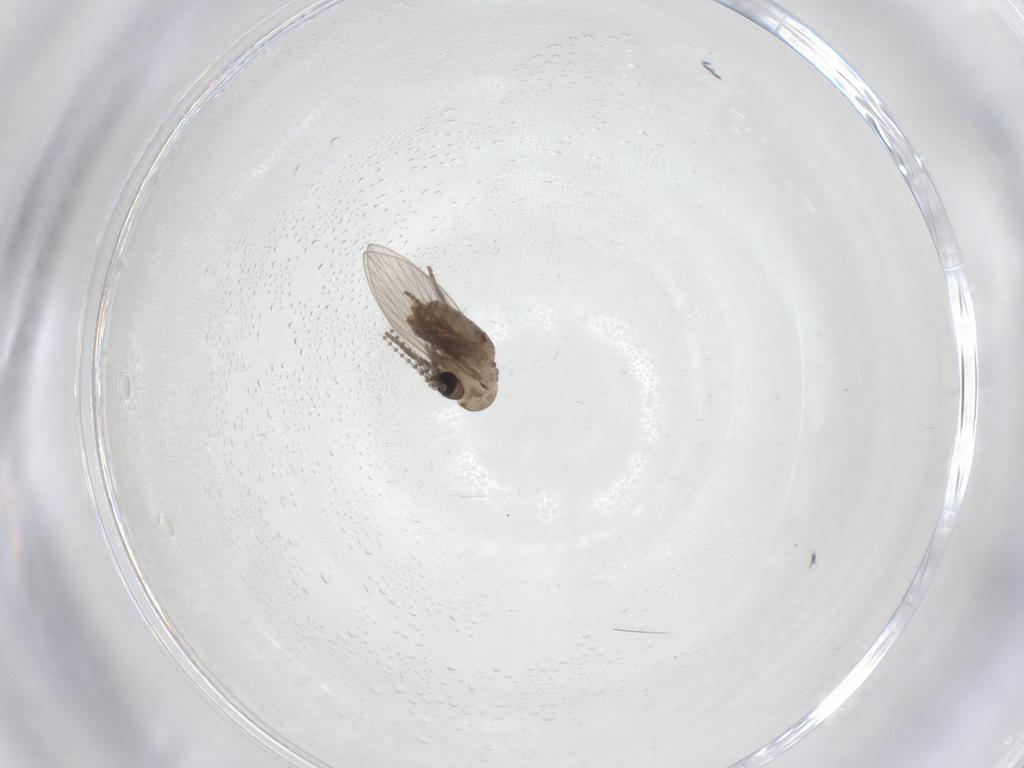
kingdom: Animalia
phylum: Arthropoda
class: Insecta
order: Diptera
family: Psychodidae
